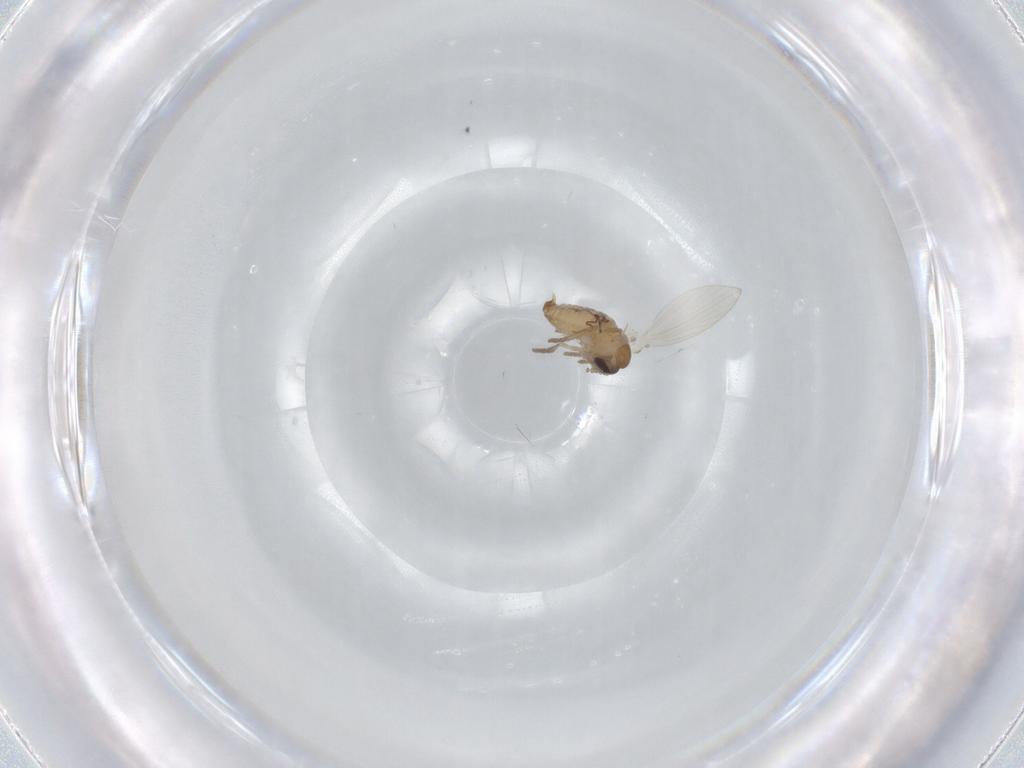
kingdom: Animalia
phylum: Arthropoda
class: Insecta
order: Diptera
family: Psychodidae
